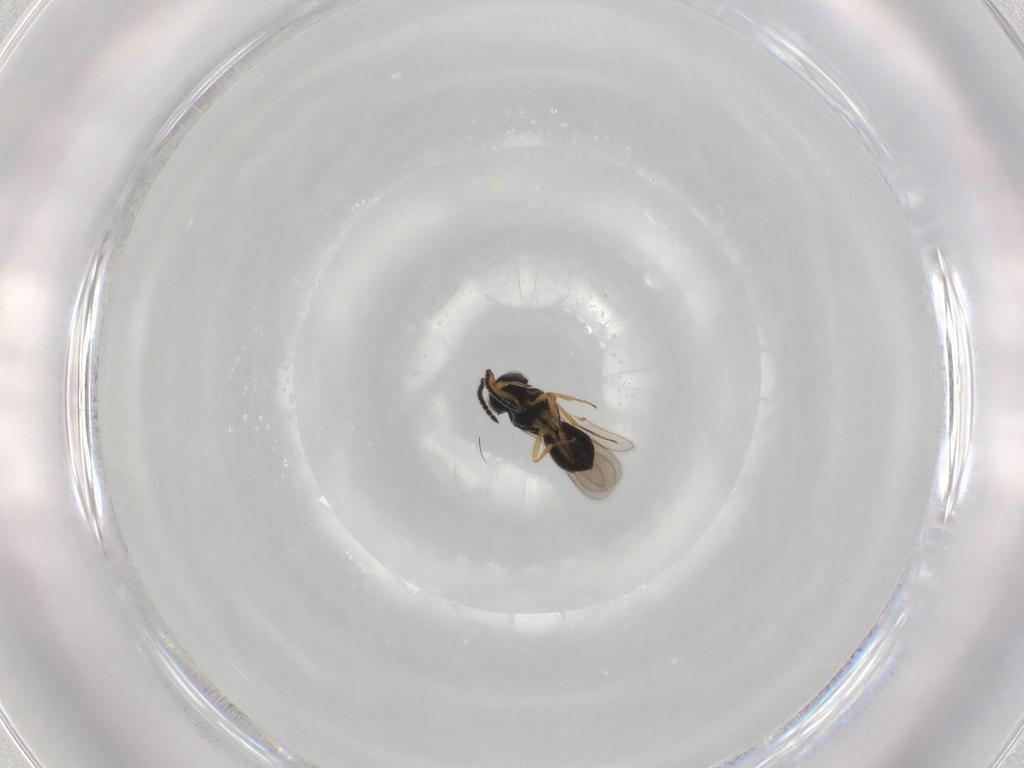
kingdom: Animalia
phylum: Arthropoda
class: Insecta
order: Hymenoptera
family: Scelionidae
